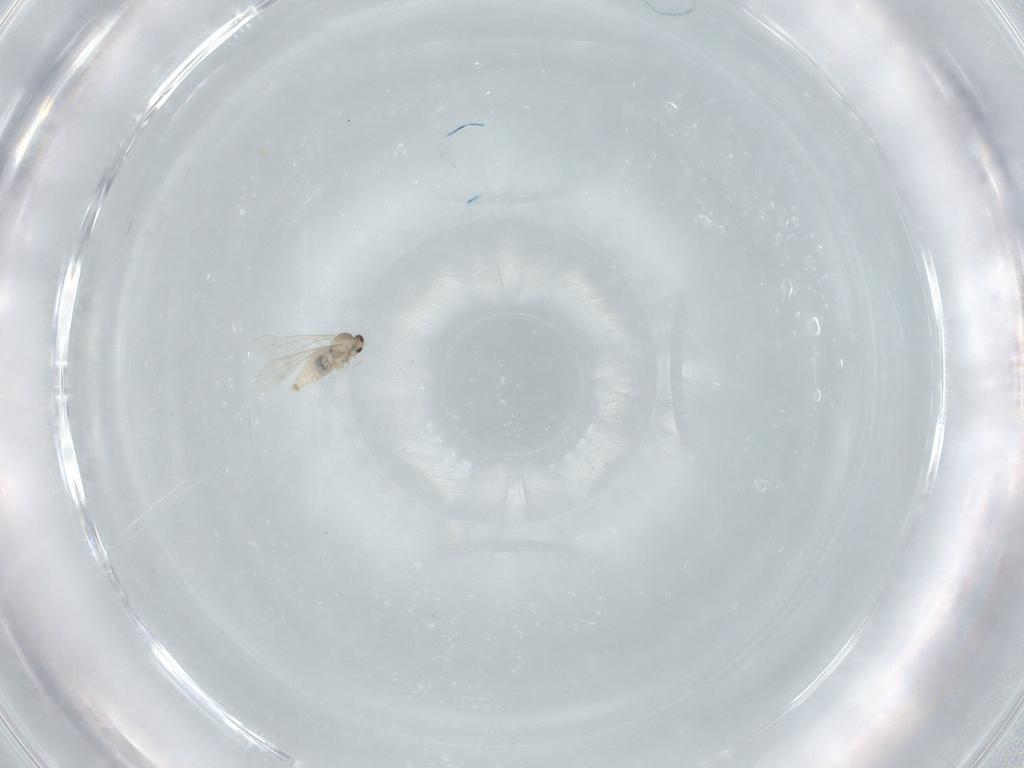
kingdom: Animalia
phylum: Arthropoda
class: Insecta
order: Diptera
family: Cecidomyiidae
